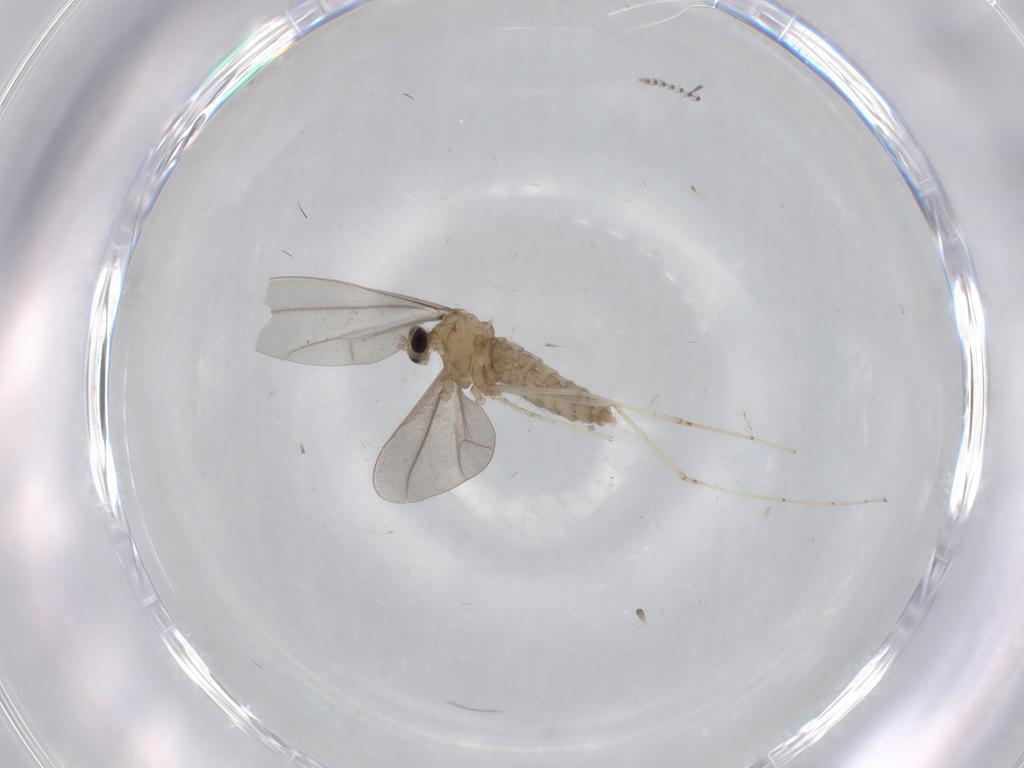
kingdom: Animalia
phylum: Arthropoda
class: Insecta
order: Diptera
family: Cecidomyiidae
